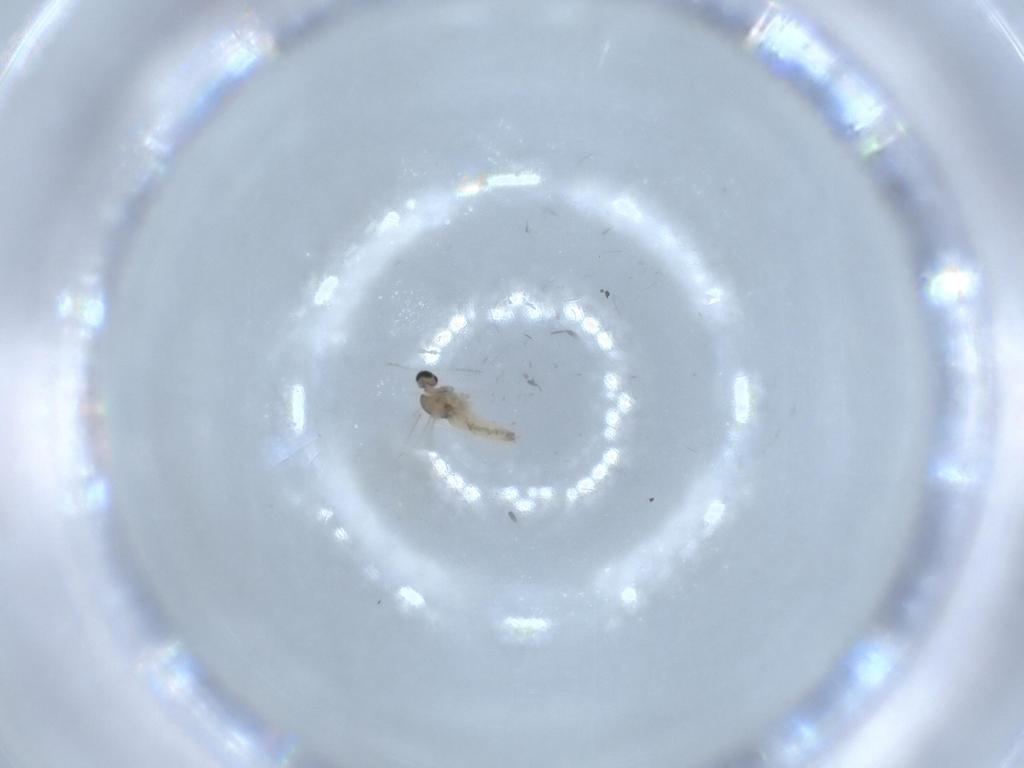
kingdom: Animalia
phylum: Arthropoda
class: Insecta
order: Diptera
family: Cecidomyiidae
